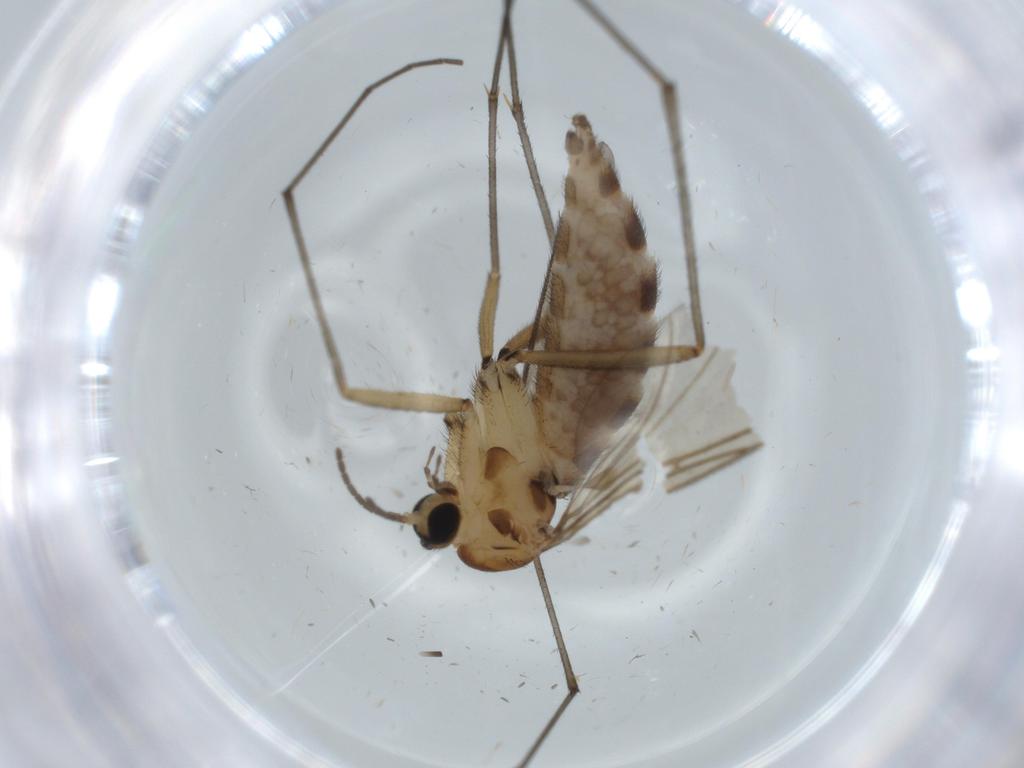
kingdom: Animalia
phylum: Arthropoda
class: Insecta
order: Diptera
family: Sciaridae
